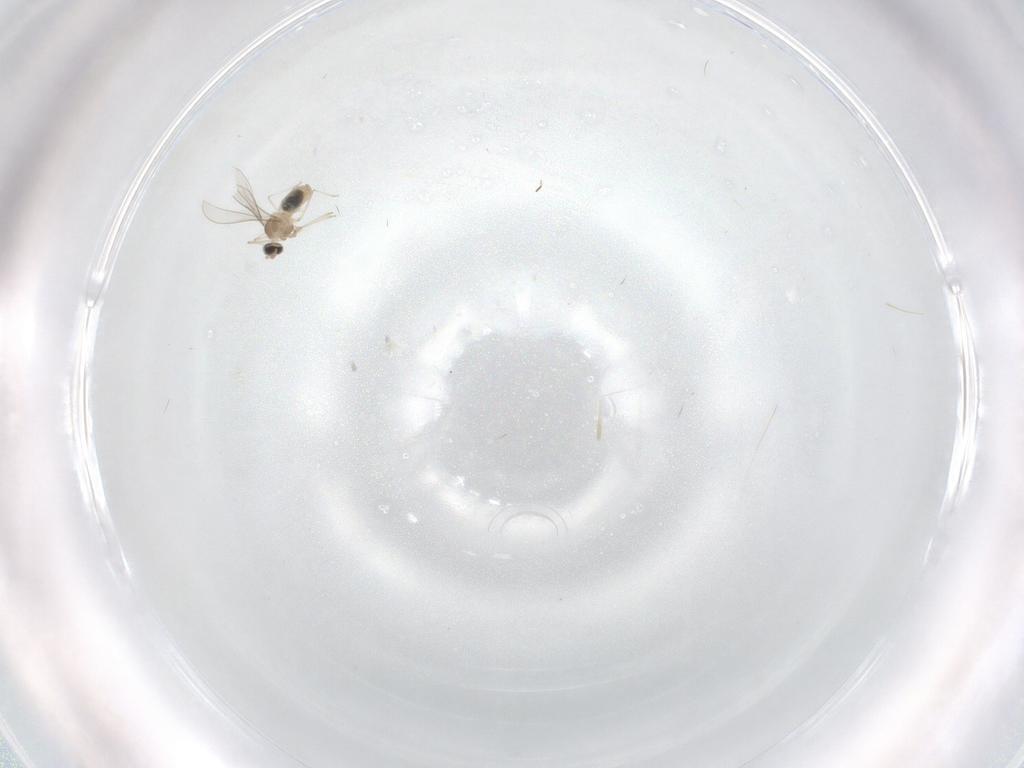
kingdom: Animalia
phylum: Arthropoda
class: Insecta
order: Diptera
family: Cecidomyiidae
